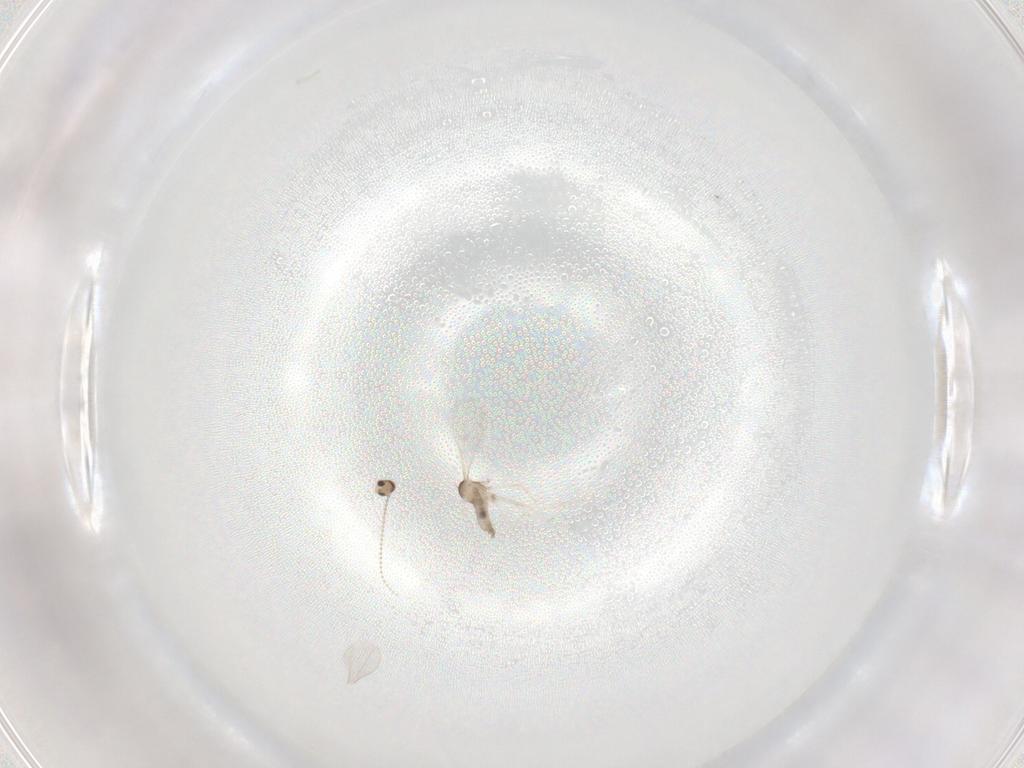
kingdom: Animalia
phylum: Arthropoda
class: Insecta
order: Diptera
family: Cecidomyiidae
